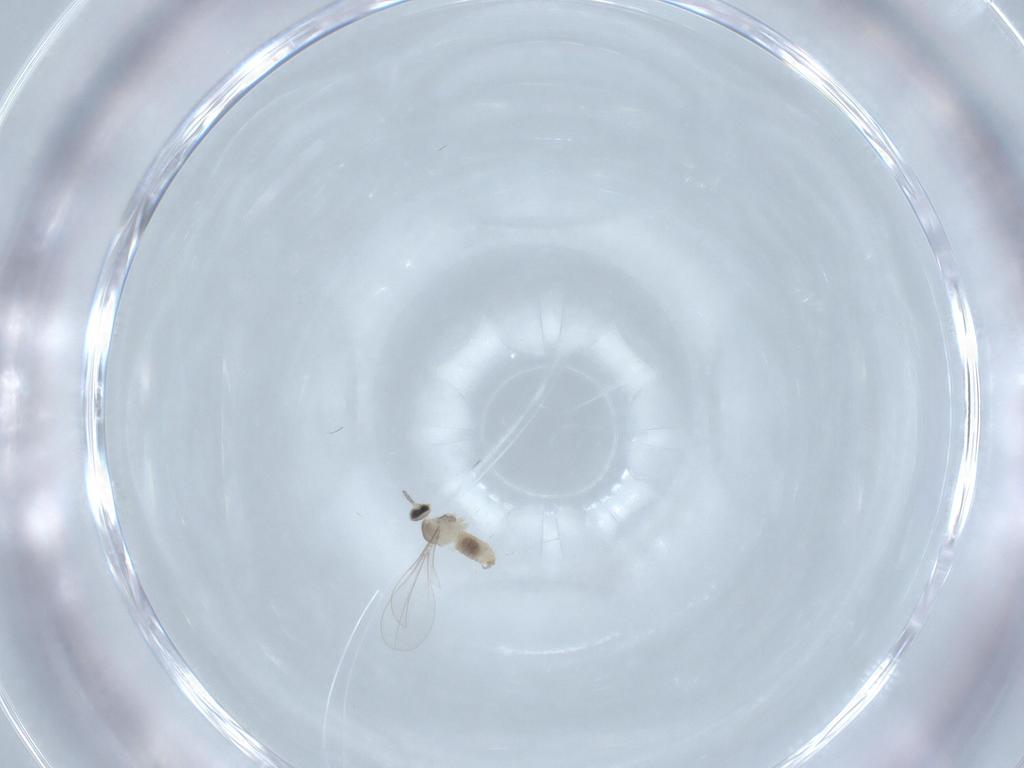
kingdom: Animalia
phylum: Arthropoda
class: Insecta
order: Diptera
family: Cecidomyiidae
